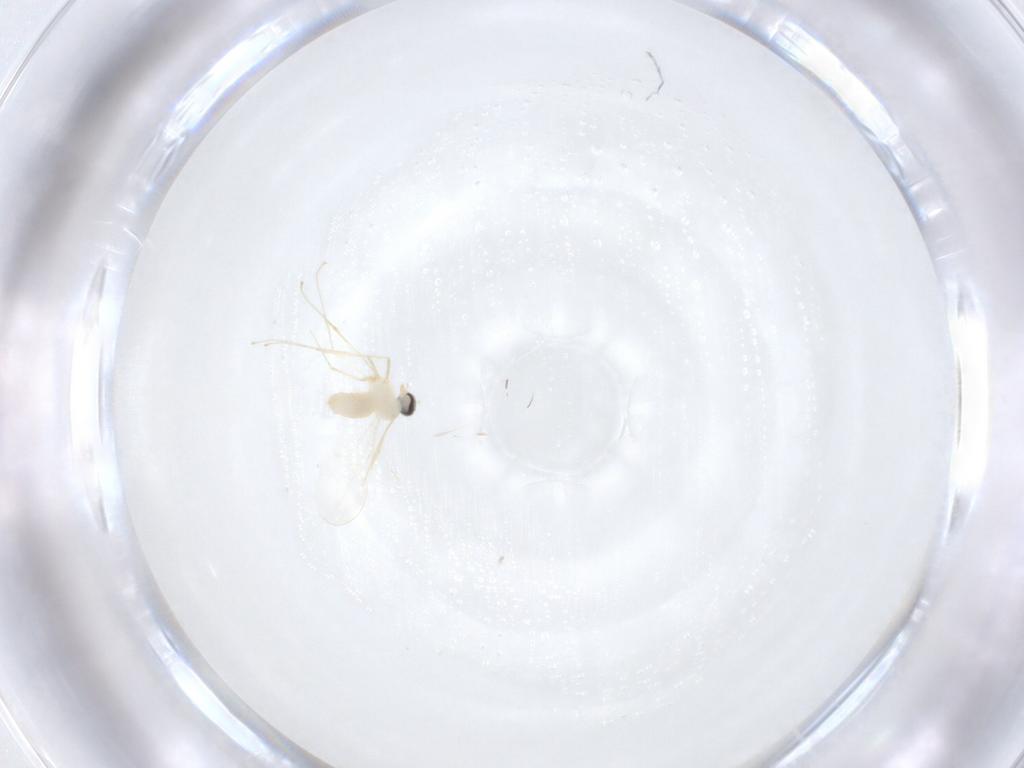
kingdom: Animalia
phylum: Arthropoda
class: Insecta
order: Diptera
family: Cecidomyiidae
